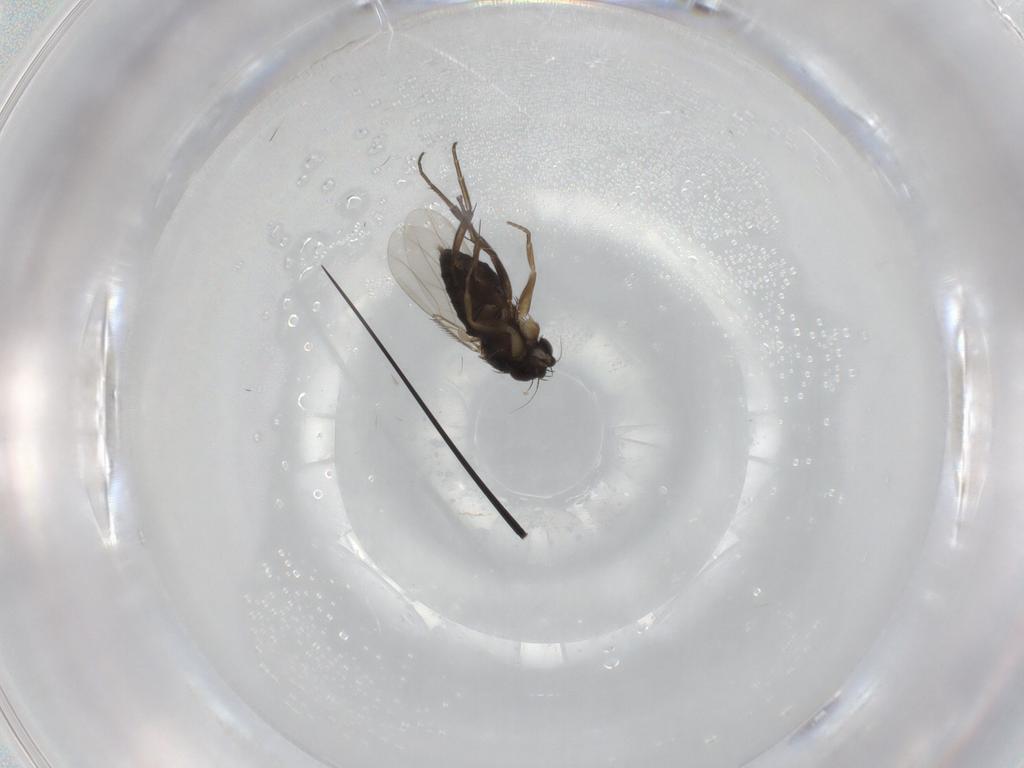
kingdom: Animalia
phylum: Arthropoda
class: Insecta
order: Diptera
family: Phoridae
